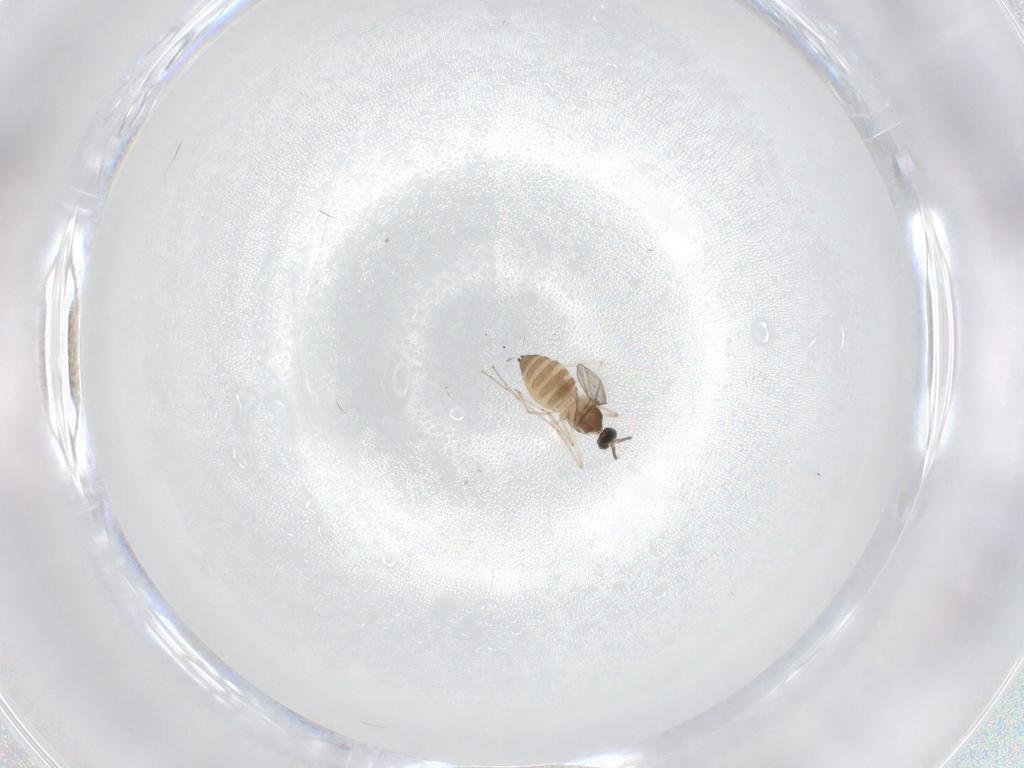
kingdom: Animalia
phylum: Arthropoda
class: Insecta
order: Diptera
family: Cecidomyiidae
